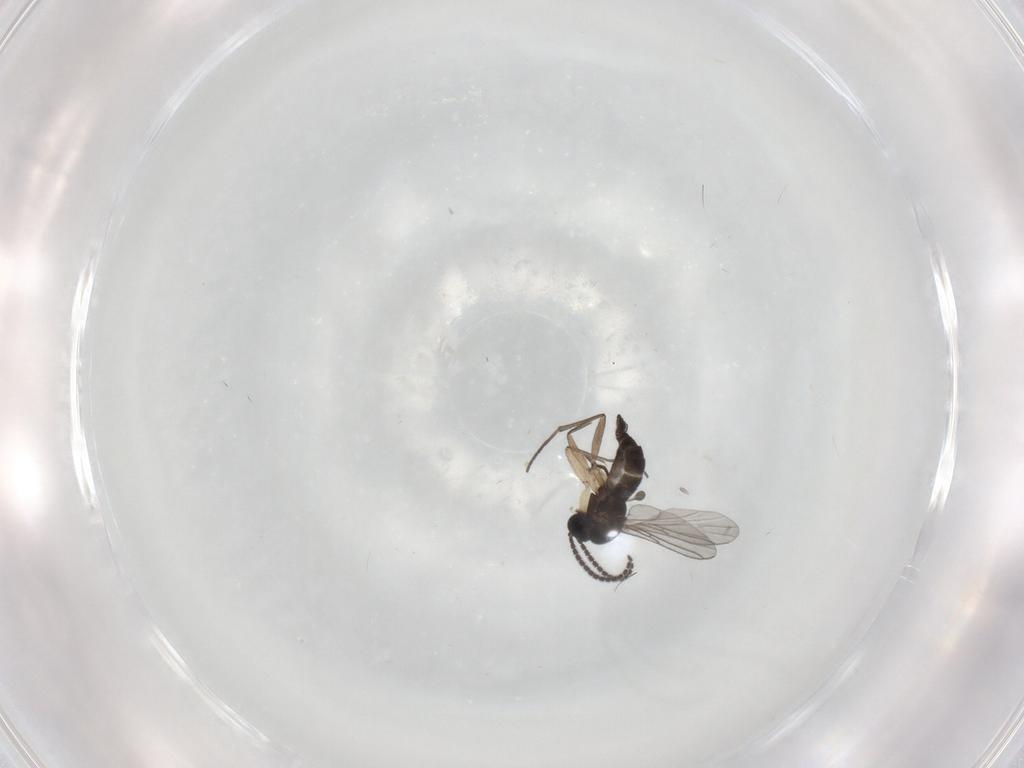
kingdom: Animalia
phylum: Arthropoda
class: Insecta
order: Diptera
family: Sciaridae
